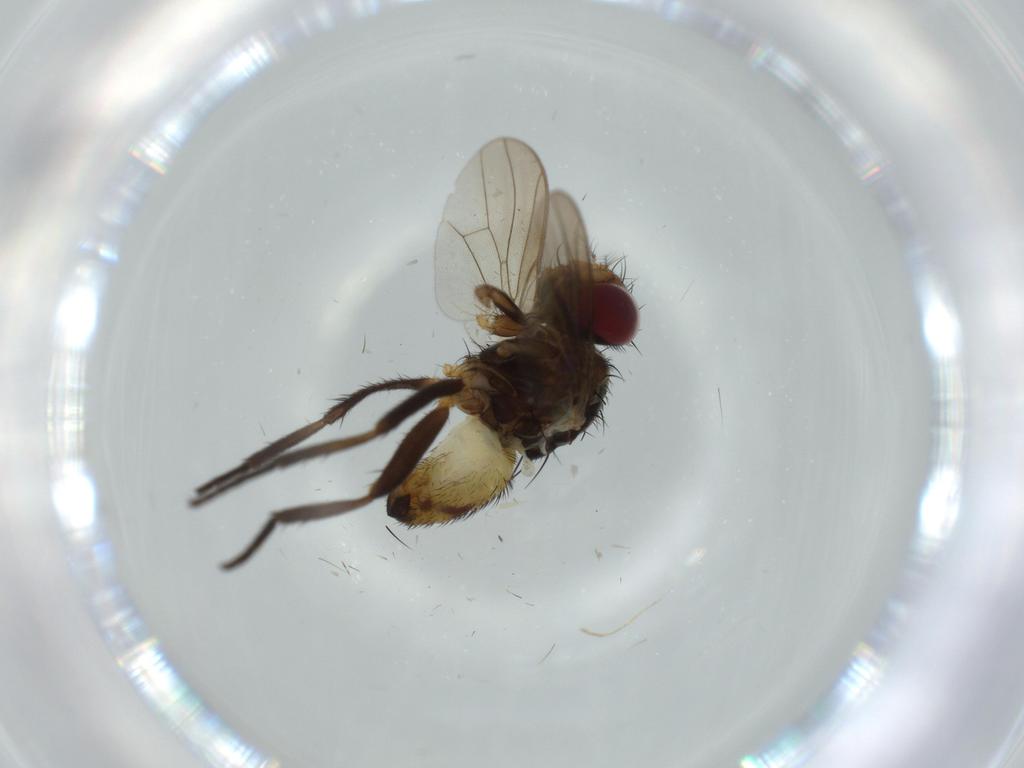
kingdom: Animalia
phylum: Arthropoda
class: Insecta
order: Diptera
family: Anthomyiidae
